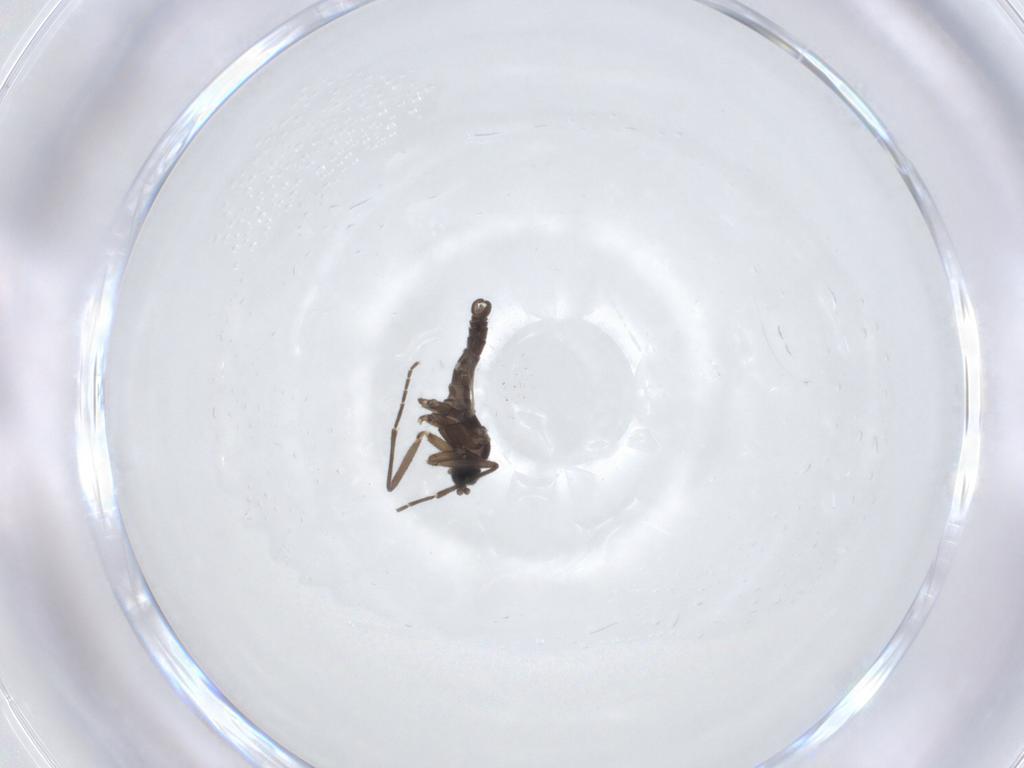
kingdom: Animalia
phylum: Arthropoda
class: Insecta
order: Diptera
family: Sciaridae
